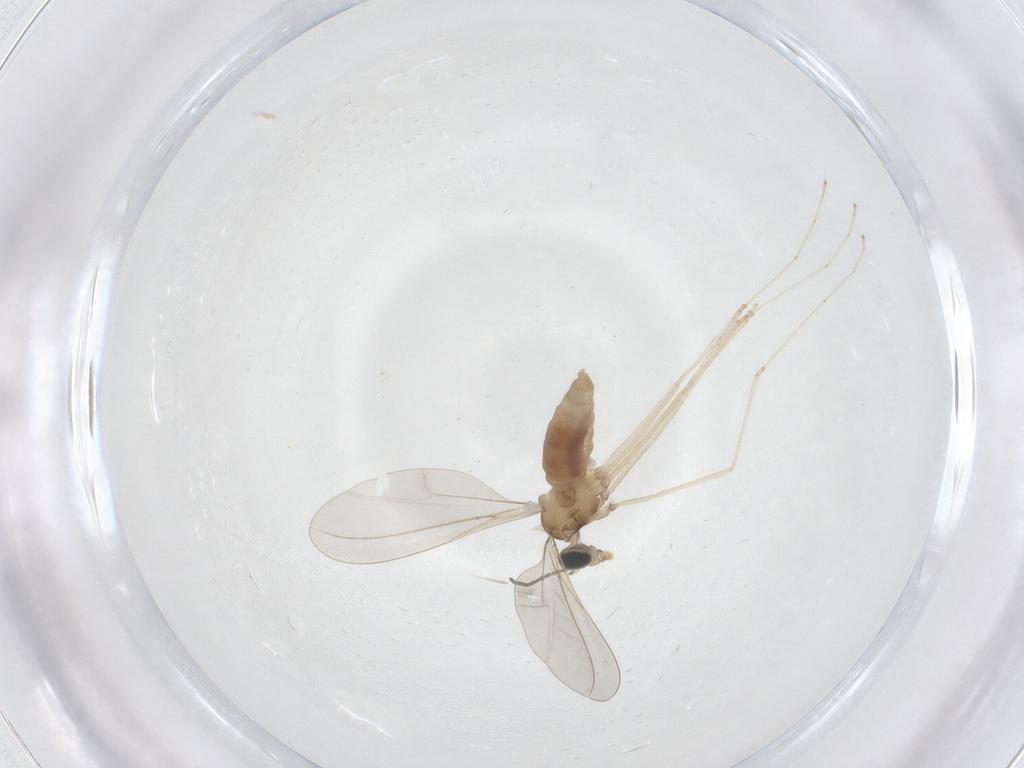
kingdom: Animalia
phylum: Arthropoda
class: Insecta
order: Diptera
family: Cecidomyiidae
